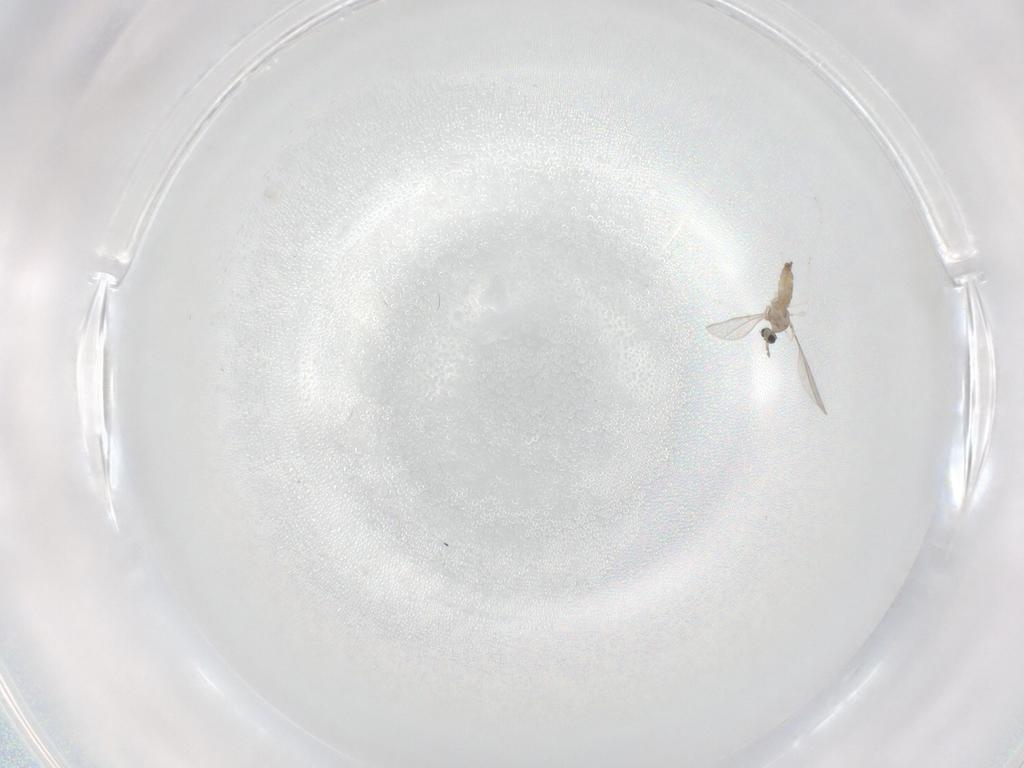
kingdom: Animalia
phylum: Arthropoda
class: Insecta
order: Diptera
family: Cecidomyiidae
